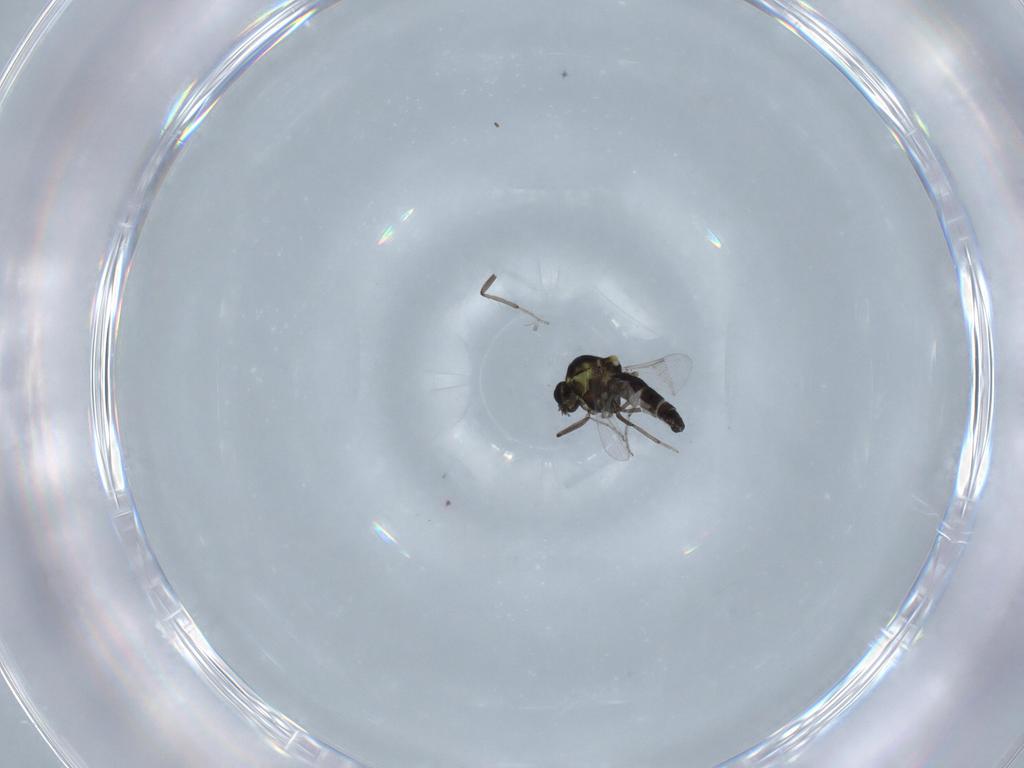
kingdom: Animalia
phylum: Arthropoda
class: Insecta
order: Diptera
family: Ceratopogonidae
